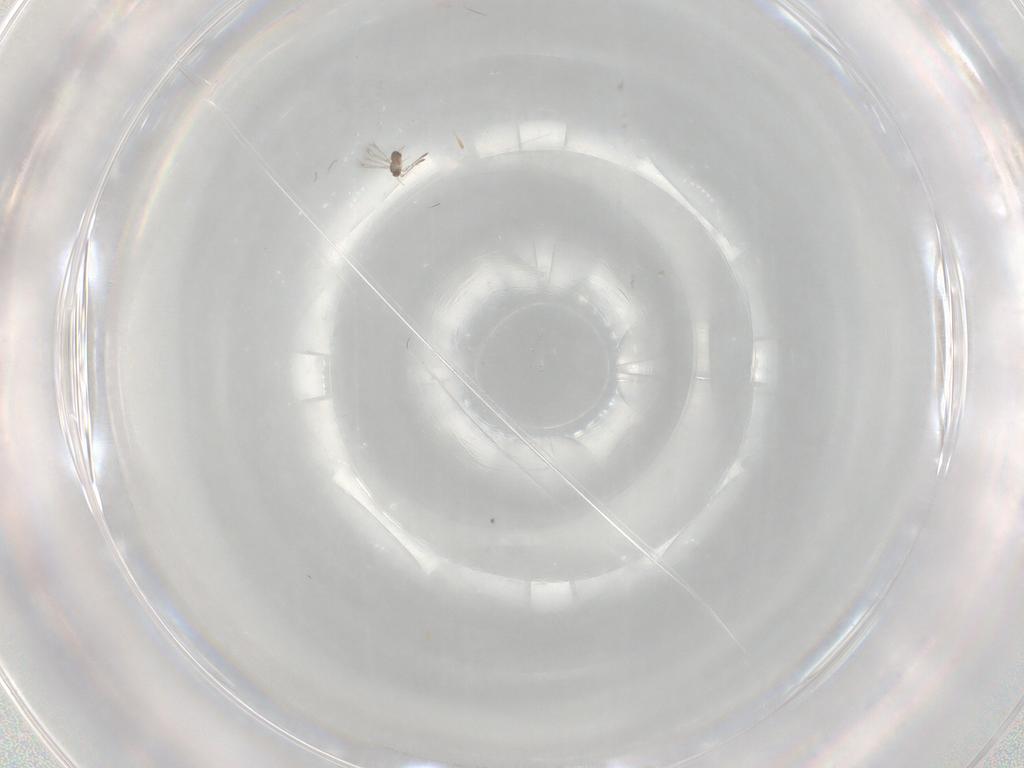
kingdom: Animalia
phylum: Arthropoda
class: Insecta
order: Hymenoptera
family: Mymaridae
